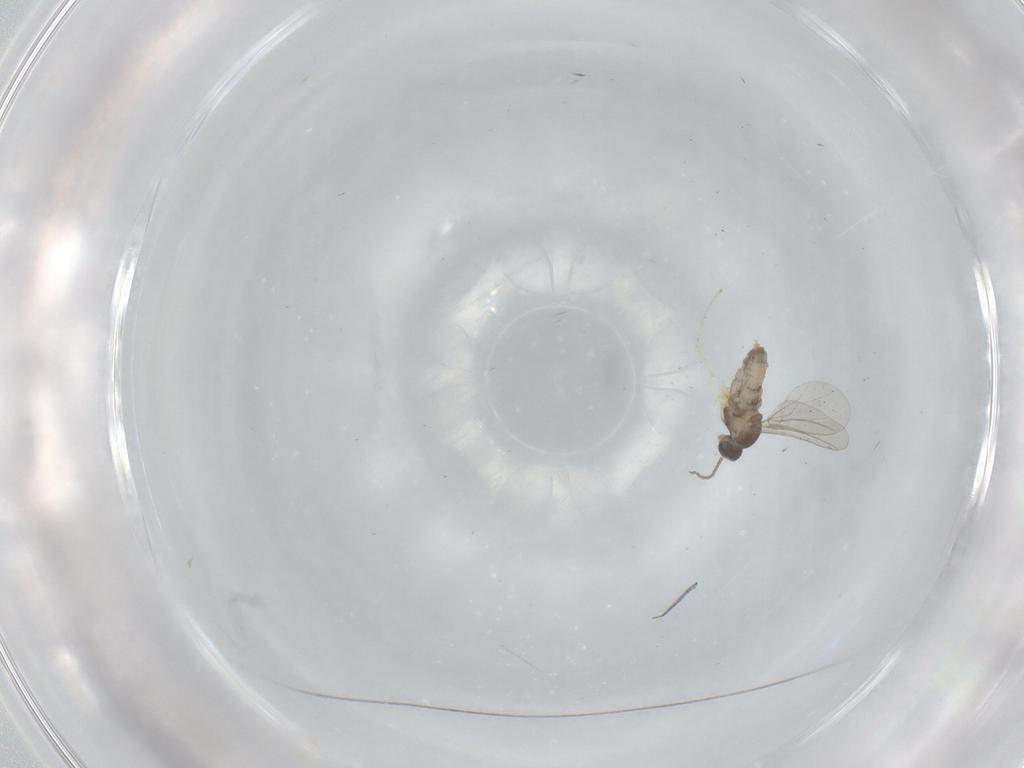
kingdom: Animalia
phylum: Arthropoda
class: Insecta
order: Diptera
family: Cecidomyiidae
